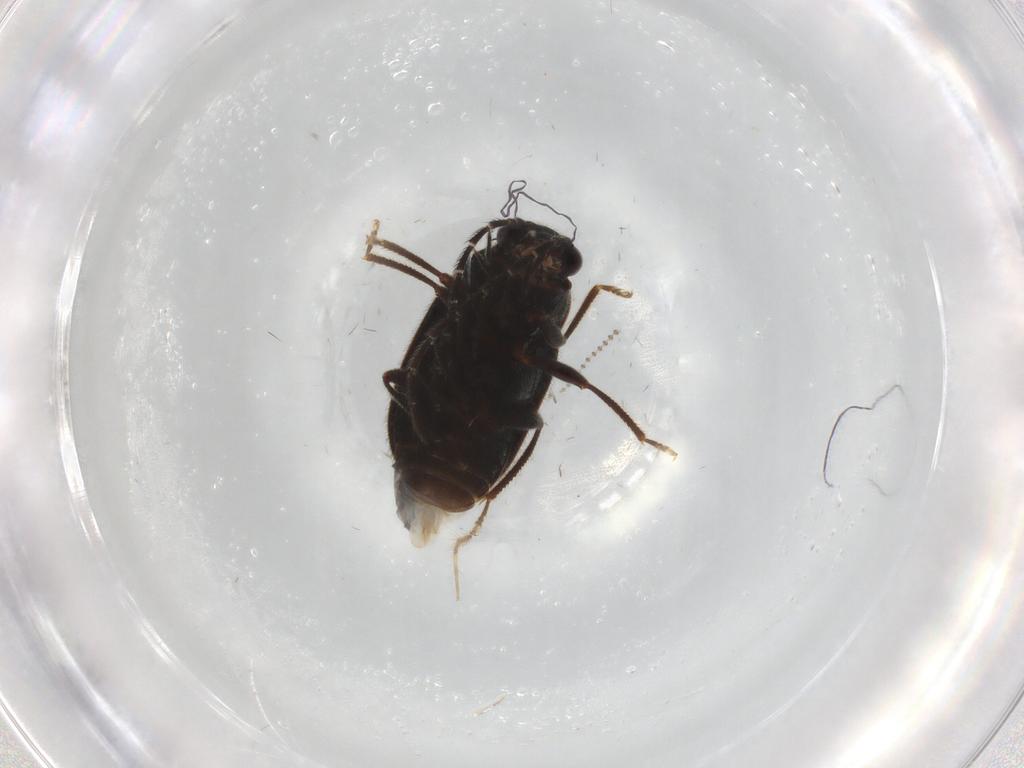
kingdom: Animalia
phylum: Arthropoda
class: Insecta
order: Coleoptera
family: Ptilodactylidae
